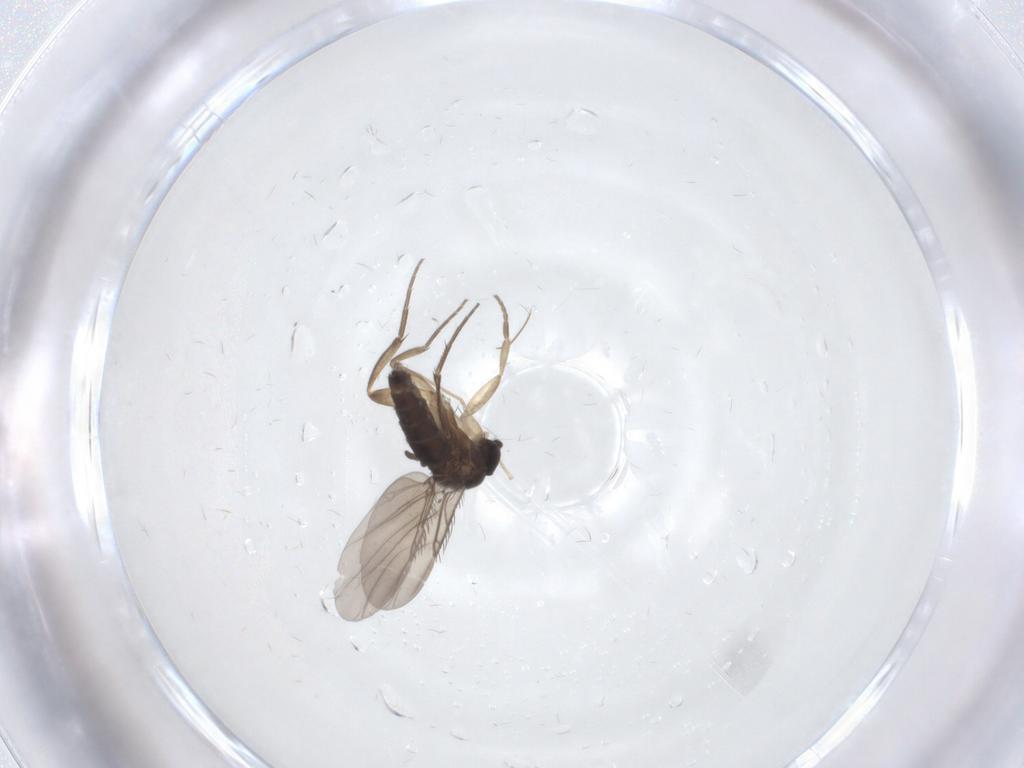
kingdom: Animalia
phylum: Arthropoda
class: Insecta
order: Diptera
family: Phoridae
